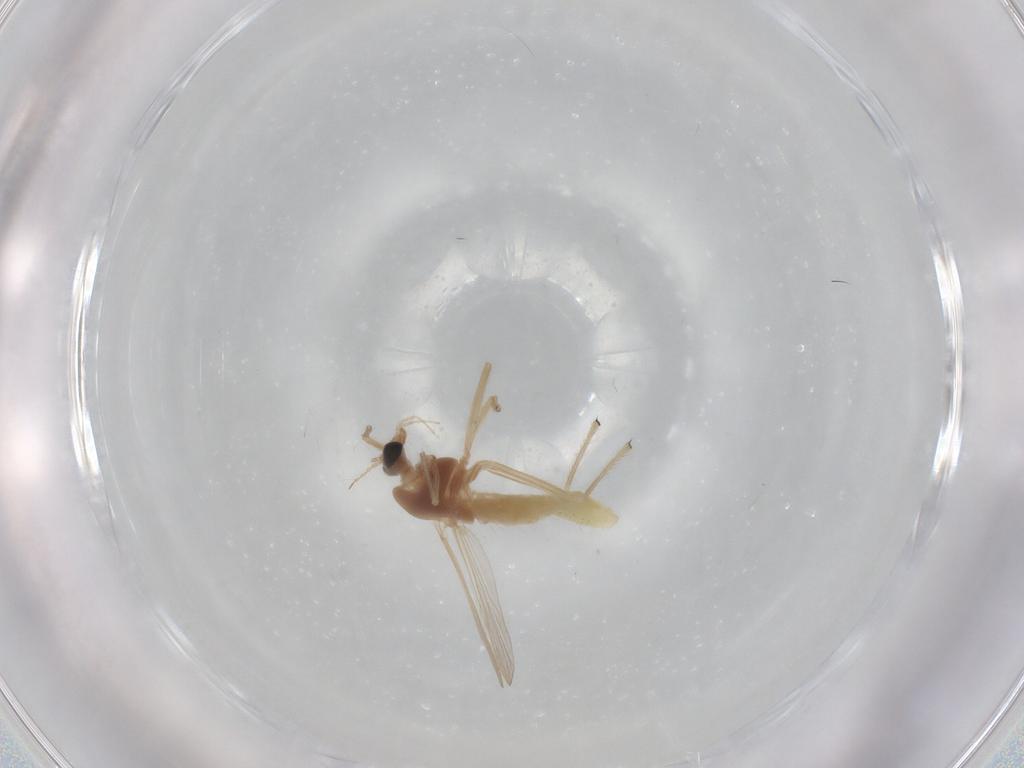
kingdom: Animalia
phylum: Arthropoda
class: Insecta
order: Diptera
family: Chironomidae
